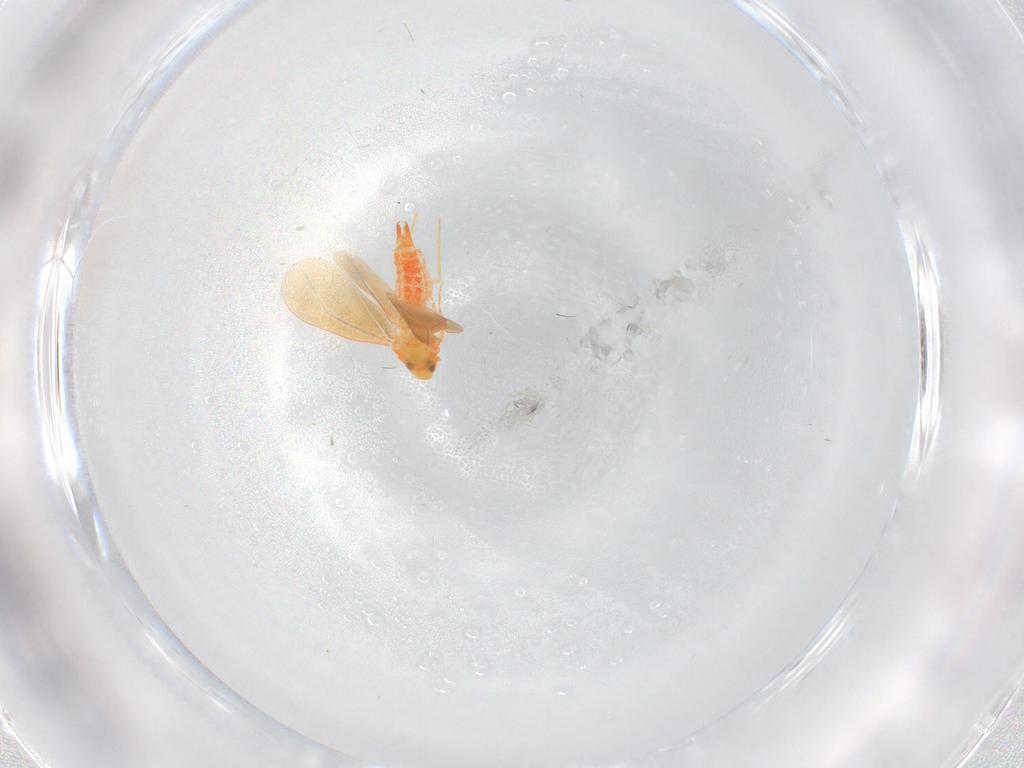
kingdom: Animalia
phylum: Arthropoda
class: Insecta
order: Hemiptera
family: Aleyrodidae
